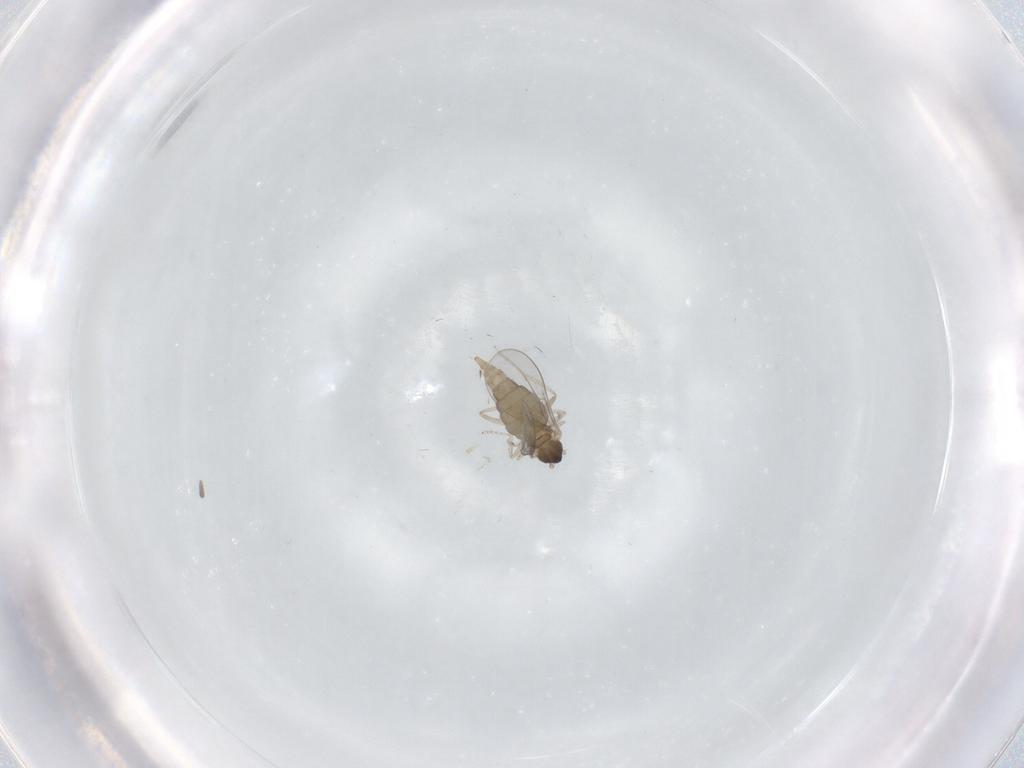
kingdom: Animalia
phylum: Arthropoda
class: Insecta
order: Diptera
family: Cecidomyiidae
